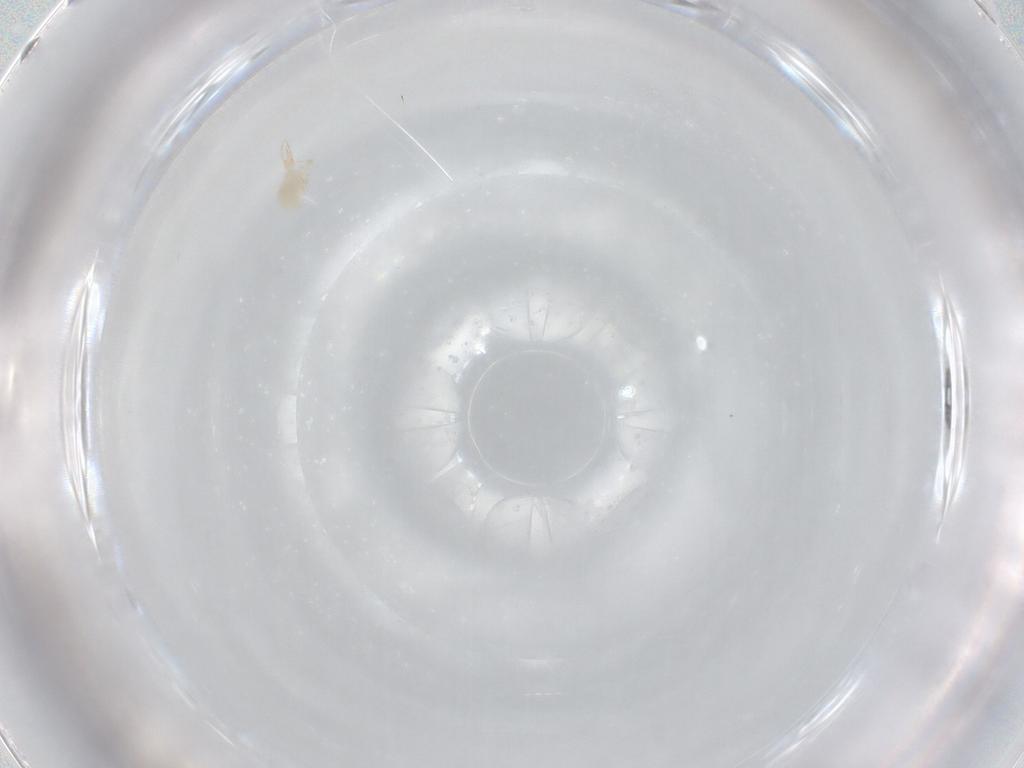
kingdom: Animalia
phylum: Arthropoda
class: Arachnida
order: Trombidiformes
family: Cunaxidae
